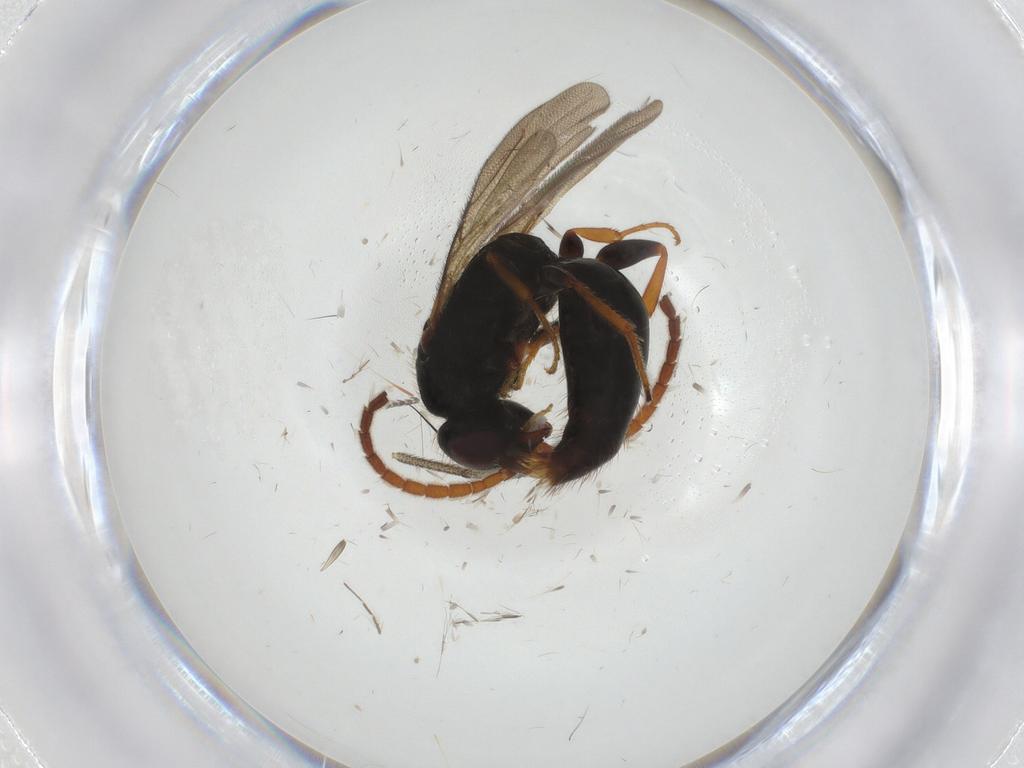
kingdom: Animalia
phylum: Arthropoda
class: Insecta
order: Hymenoptera
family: Bethylidae
